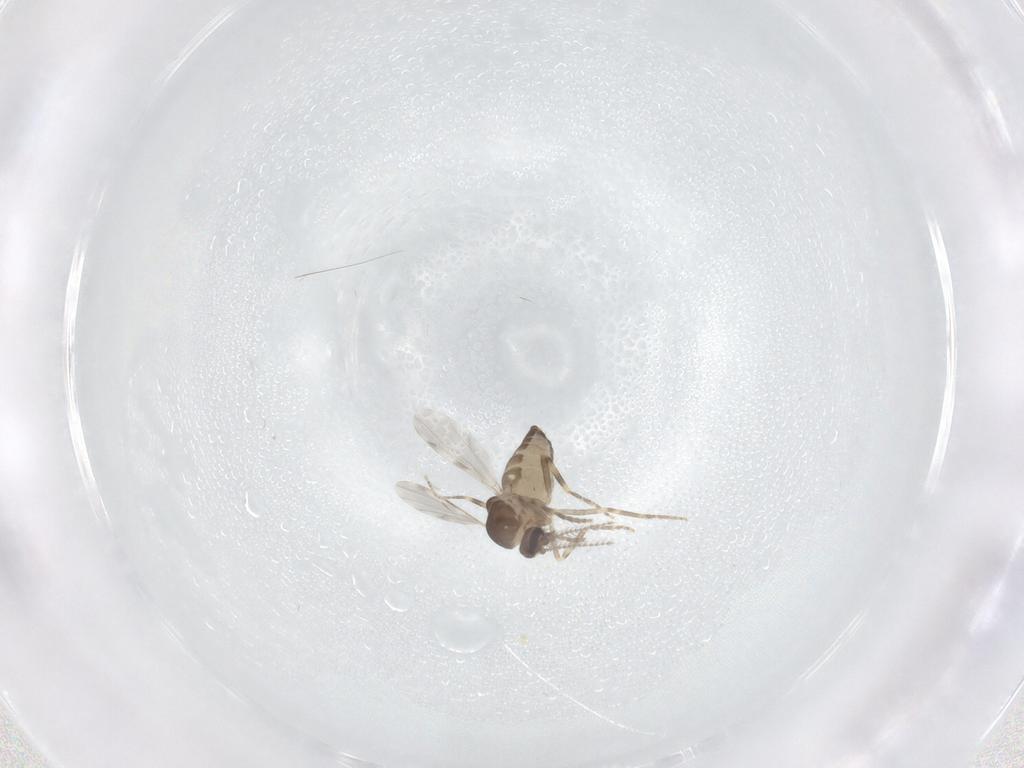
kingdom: Animalia
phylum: Arthropoda
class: Insecta
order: Diptera
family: Ceratopogonidae
